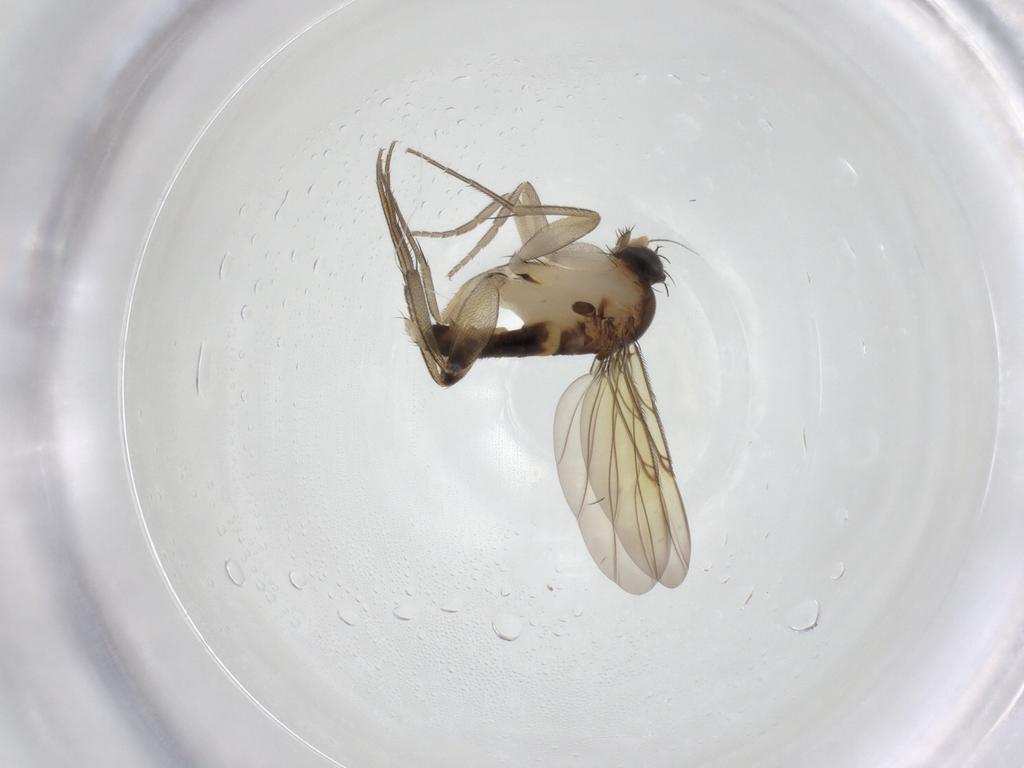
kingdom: Animalia
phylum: Arthropoda
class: Insecta
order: Diptera
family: Phoridae
